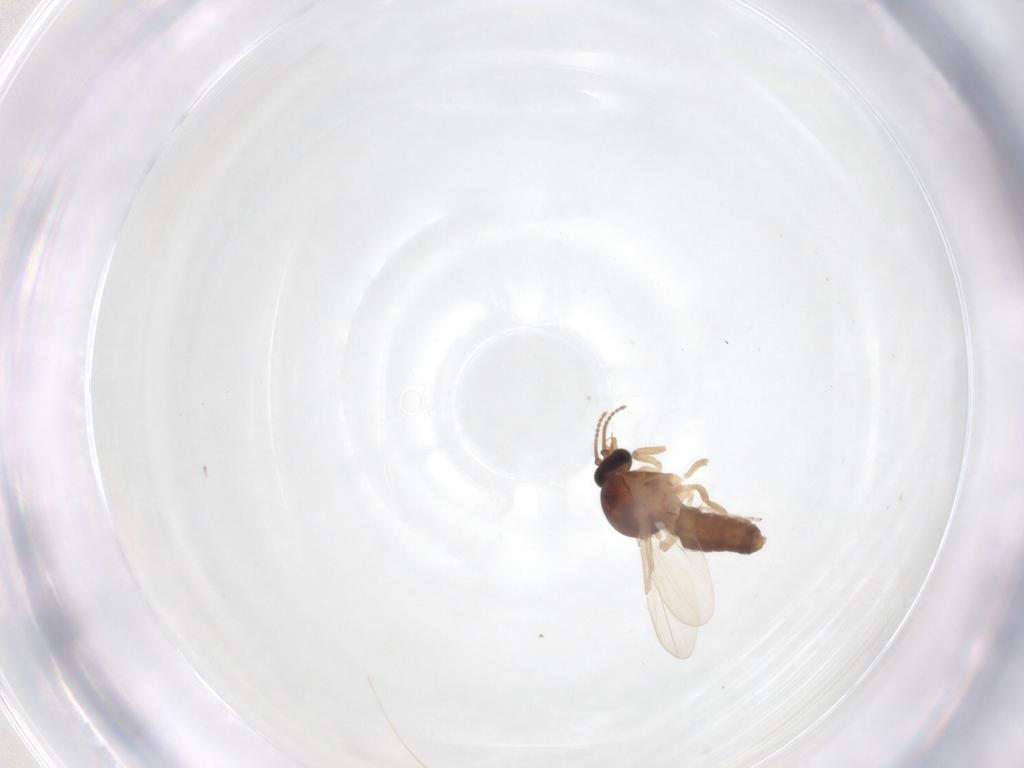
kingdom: Animalia
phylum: Arthropoda
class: Insecta
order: Diptera
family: Ceratopogonidae
